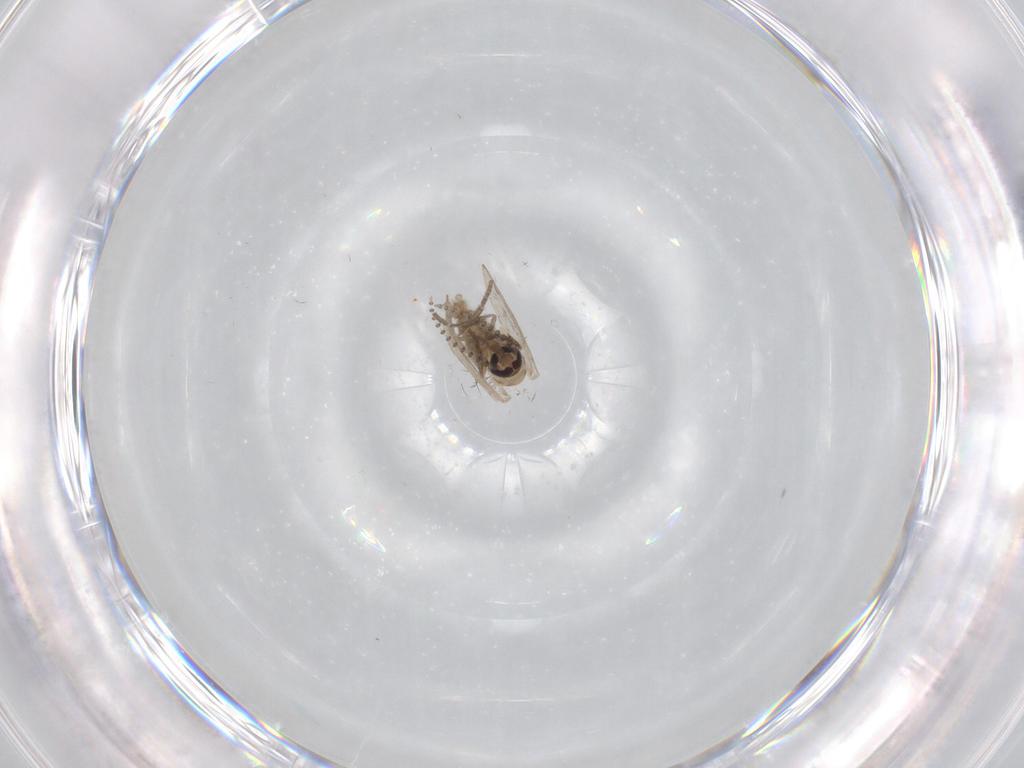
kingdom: Animalia
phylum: Arthropoda
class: Insecta
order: Diptera
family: Psychodidae
